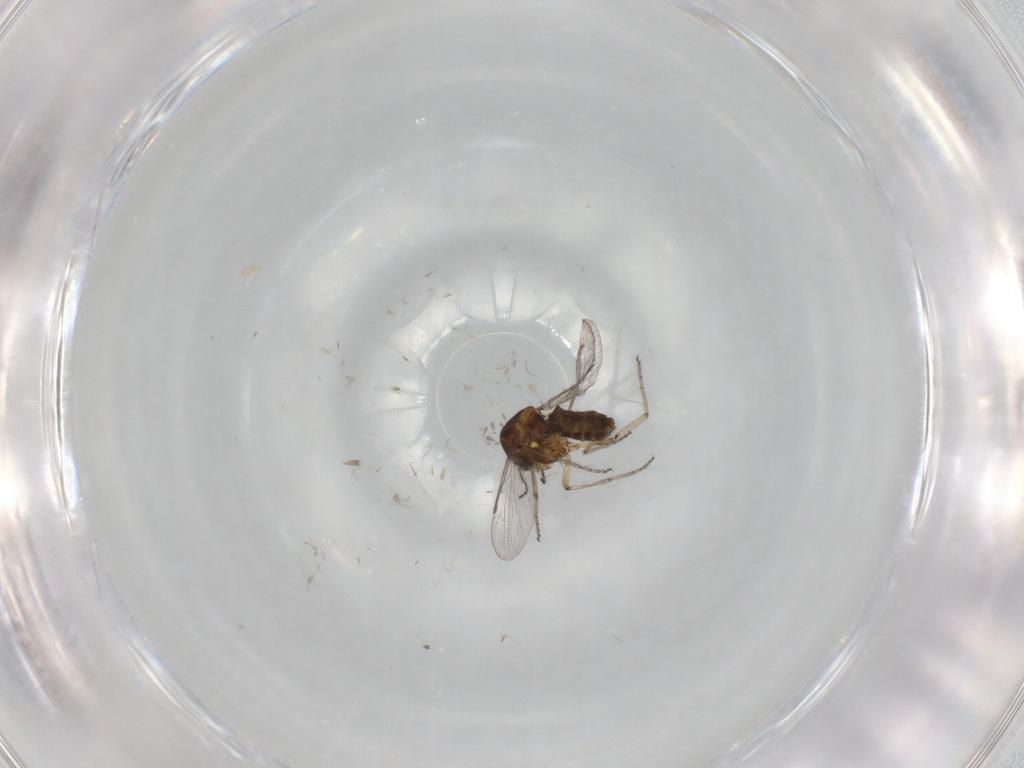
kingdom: Animalia
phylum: Arthropoda
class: Insecta
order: Diptera
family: Ceratopogonidae
